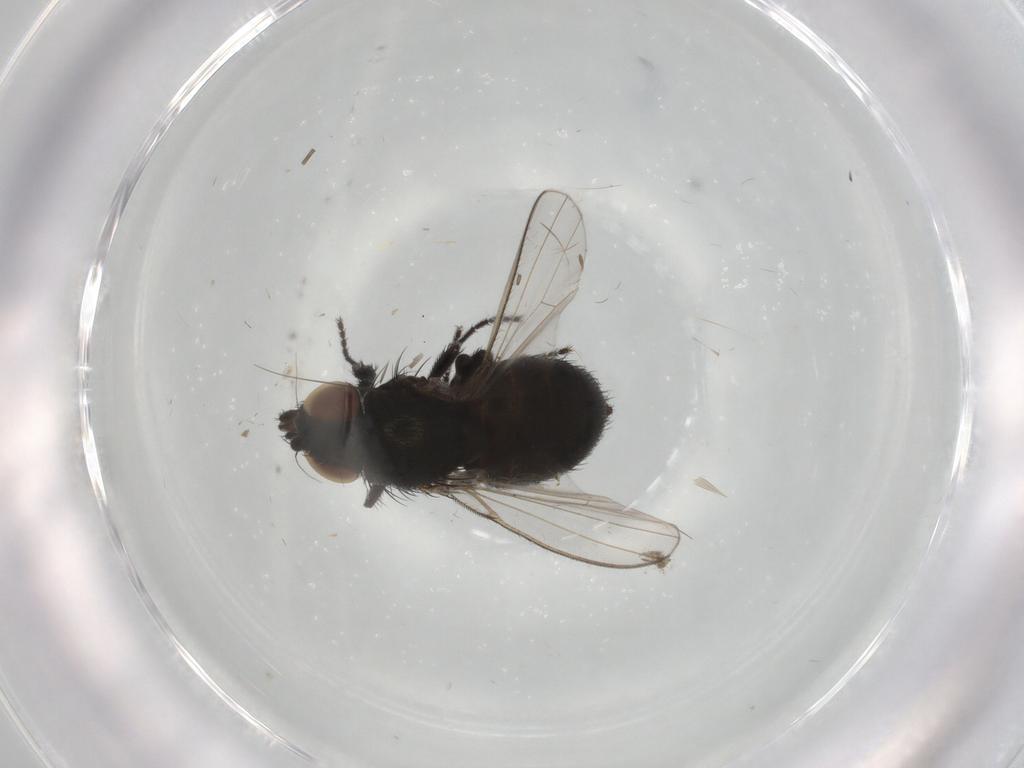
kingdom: Animalia
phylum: Arthropoda
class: Insecta
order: Diptera
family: Milichiidae
